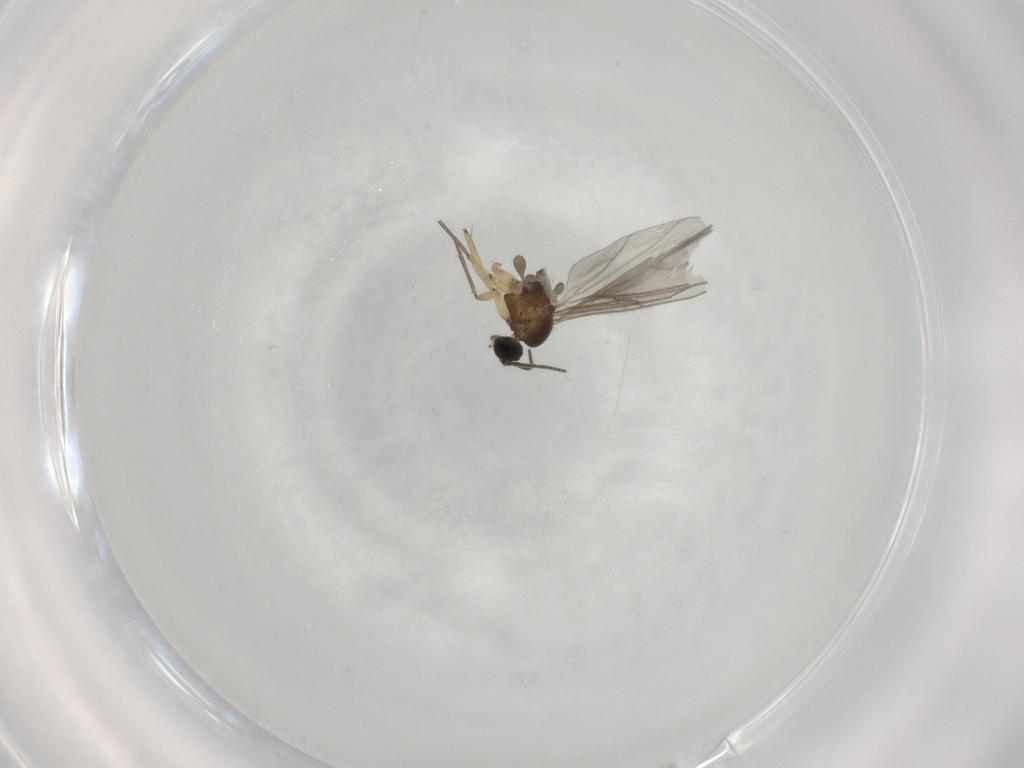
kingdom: Animalia
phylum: Arthropoda
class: Insecta
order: Diptera
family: Sciaridae
